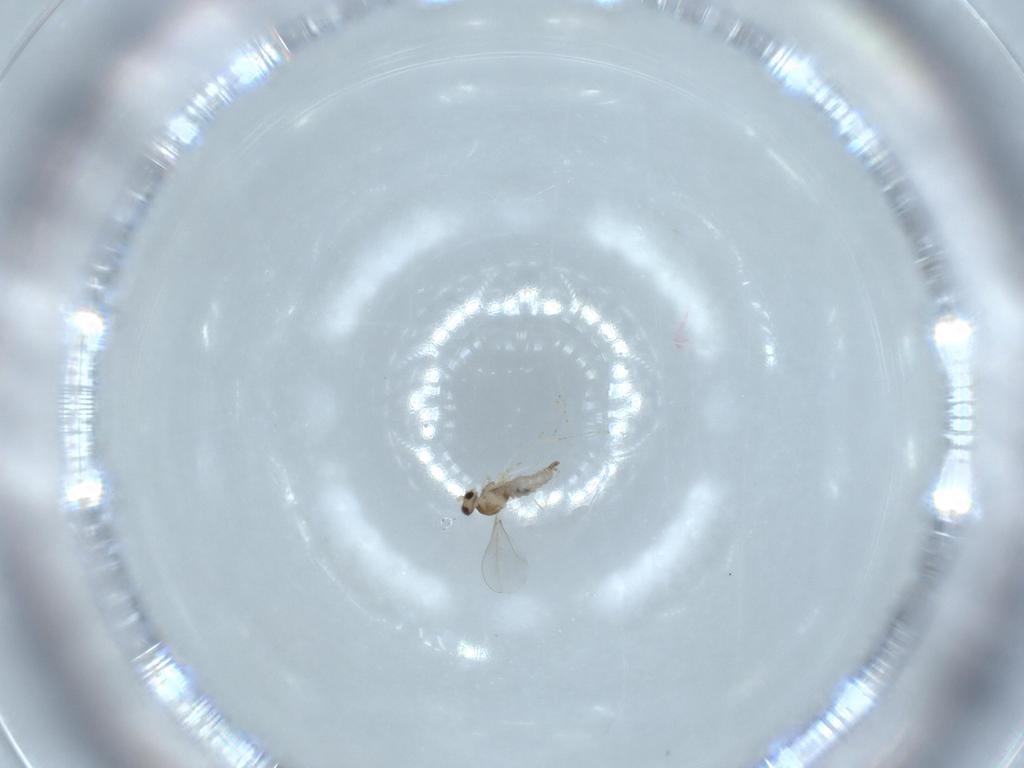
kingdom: Animalia
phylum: Arthropoda
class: Insecta
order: Diptera
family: Cecidomyiidae
